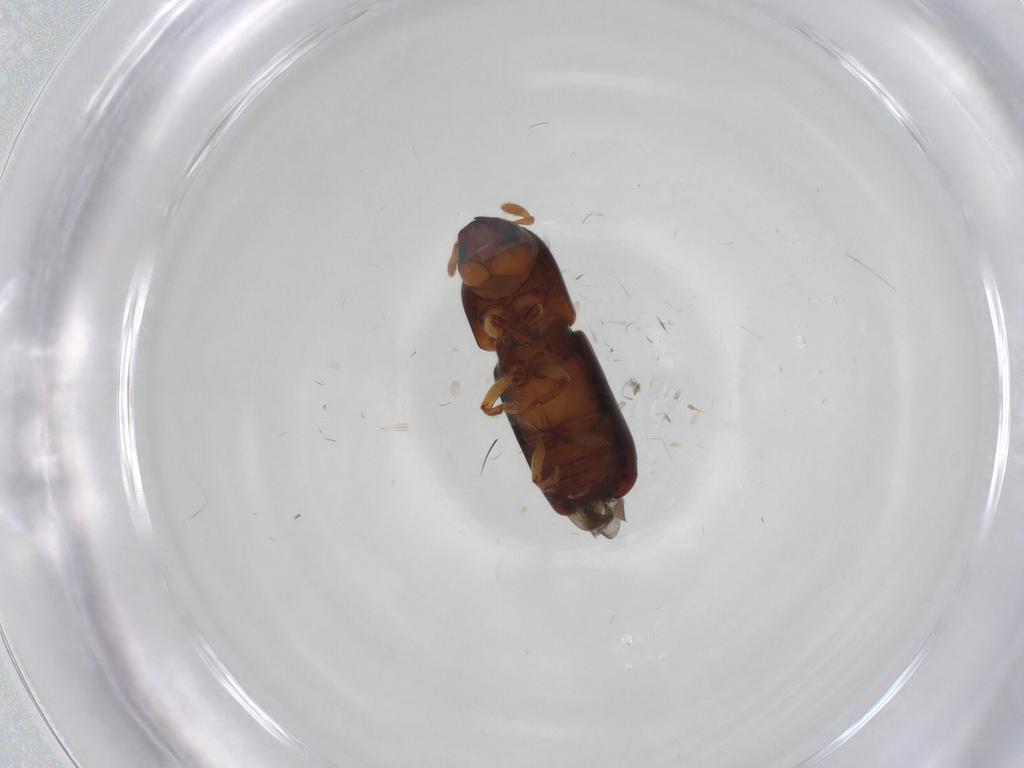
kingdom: Animalia
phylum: Arthropoda
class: Insecta
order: Coleoptera
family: Curculionidae
